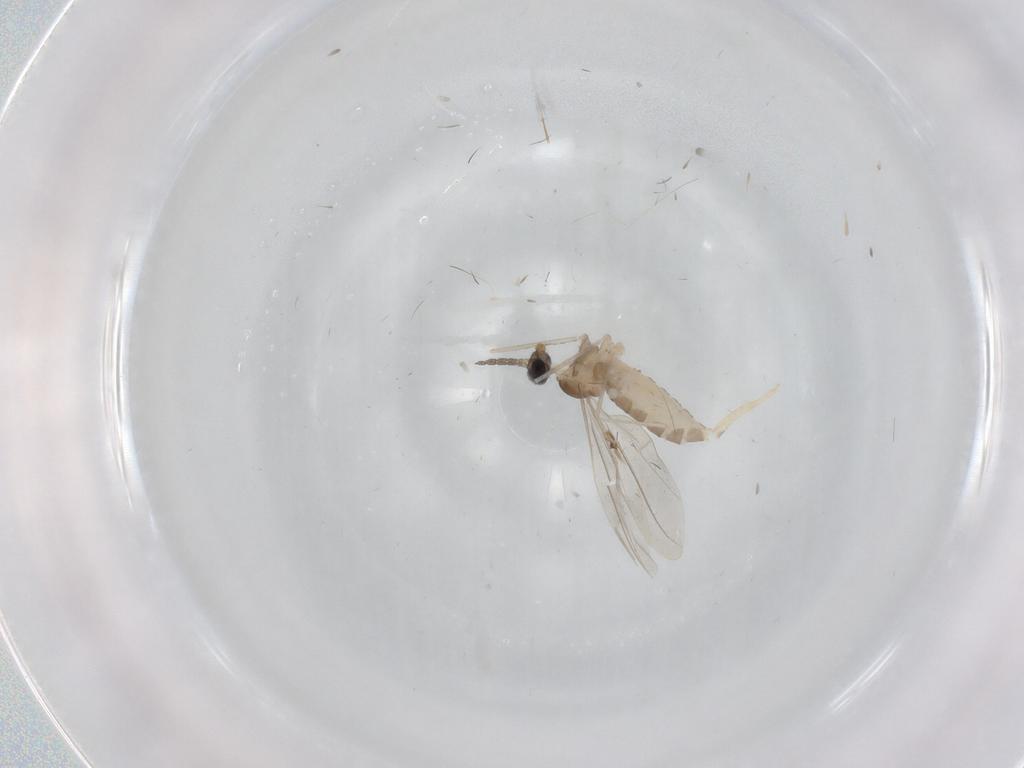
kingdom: Animalia
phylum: Arthropoda
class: Insecta
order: Diptera
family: Cecidomyiidae
